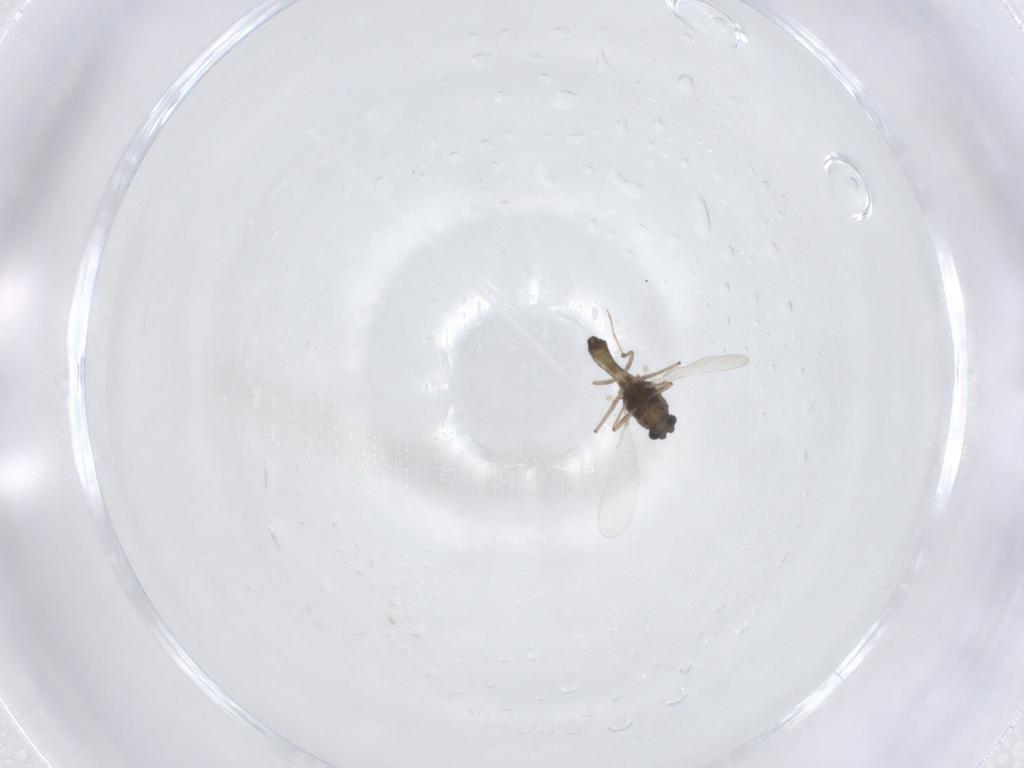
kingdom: Animalia
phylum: Arthropoda
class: Insecta
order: Diptera
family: Chironomidae
